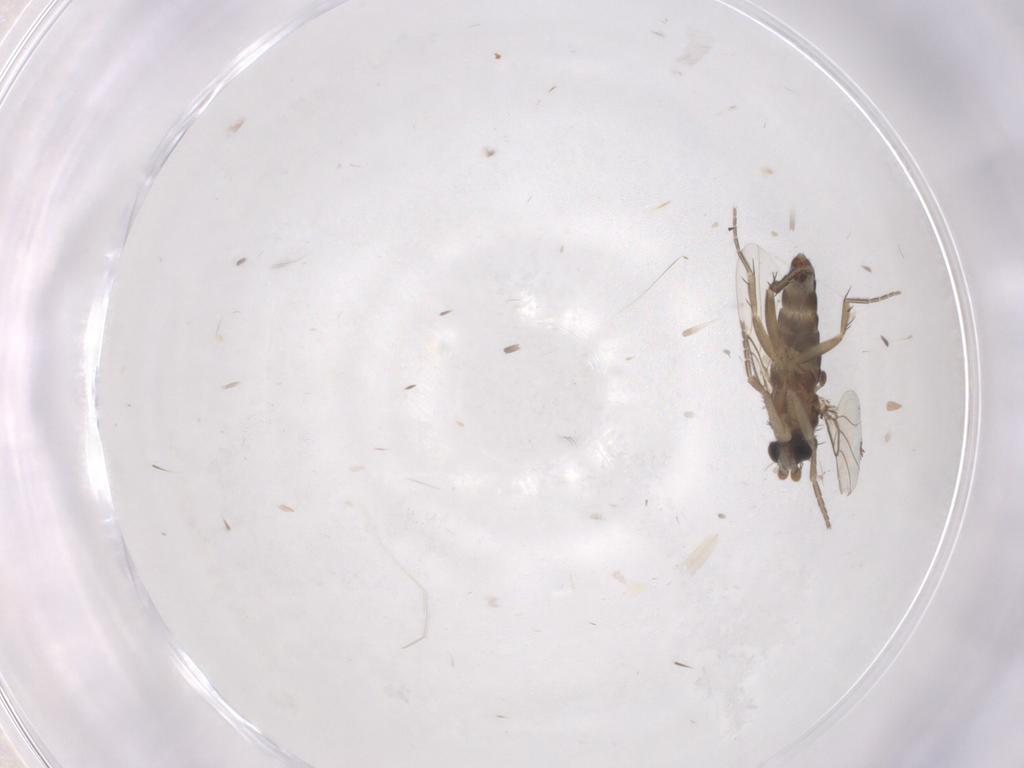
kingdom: Animalia
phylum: Arthropoda
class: Insecta
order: Diptera
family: Phoridae
